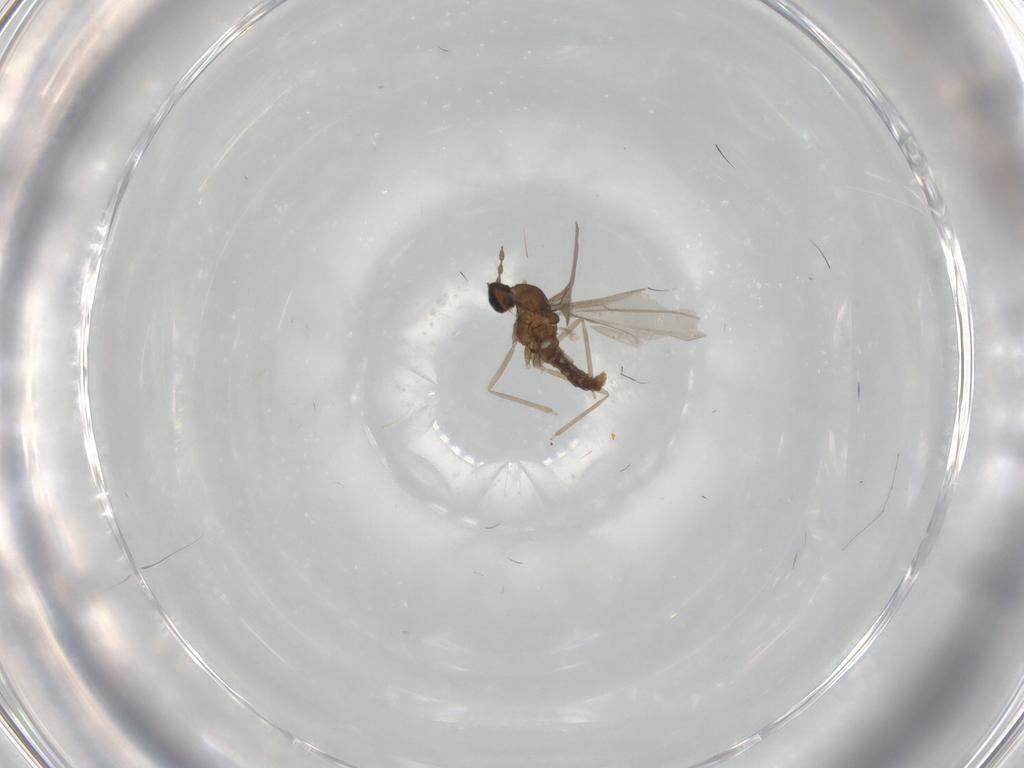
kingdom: Animalia
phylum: Arthropoda
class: Insecta
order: Diptera
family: Cecidomyiidae
